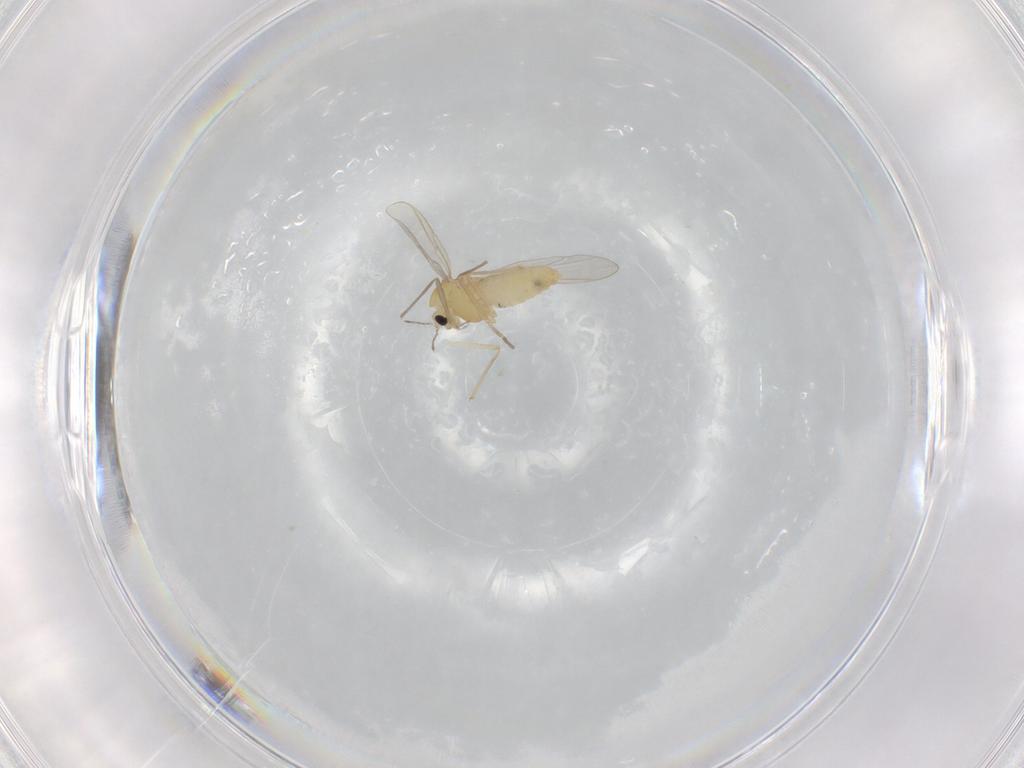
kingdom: Animalia
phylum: Arthropoda
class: Insecta
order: Diptera
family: Chironomidae
